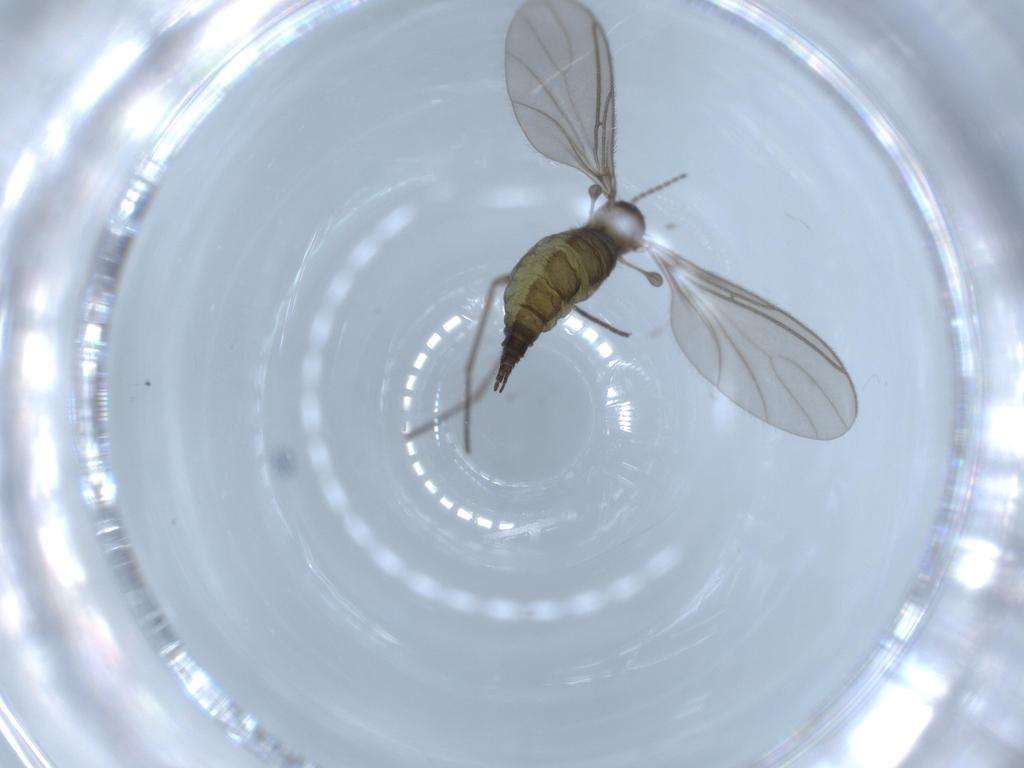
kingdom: Animalia
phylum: Arthropoda
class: Insecta
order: Diptera
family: Sciaridae
